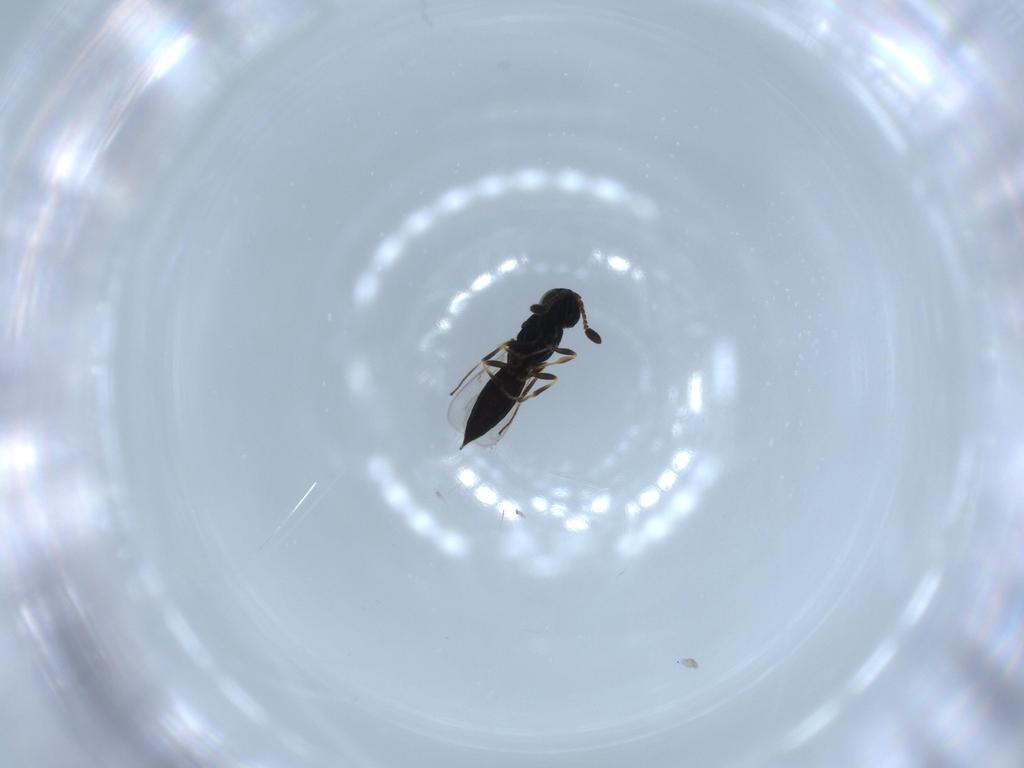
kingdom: Animalia
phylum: Arthropoda
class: Insecta
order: Hymenoptera
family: Scelionidae
